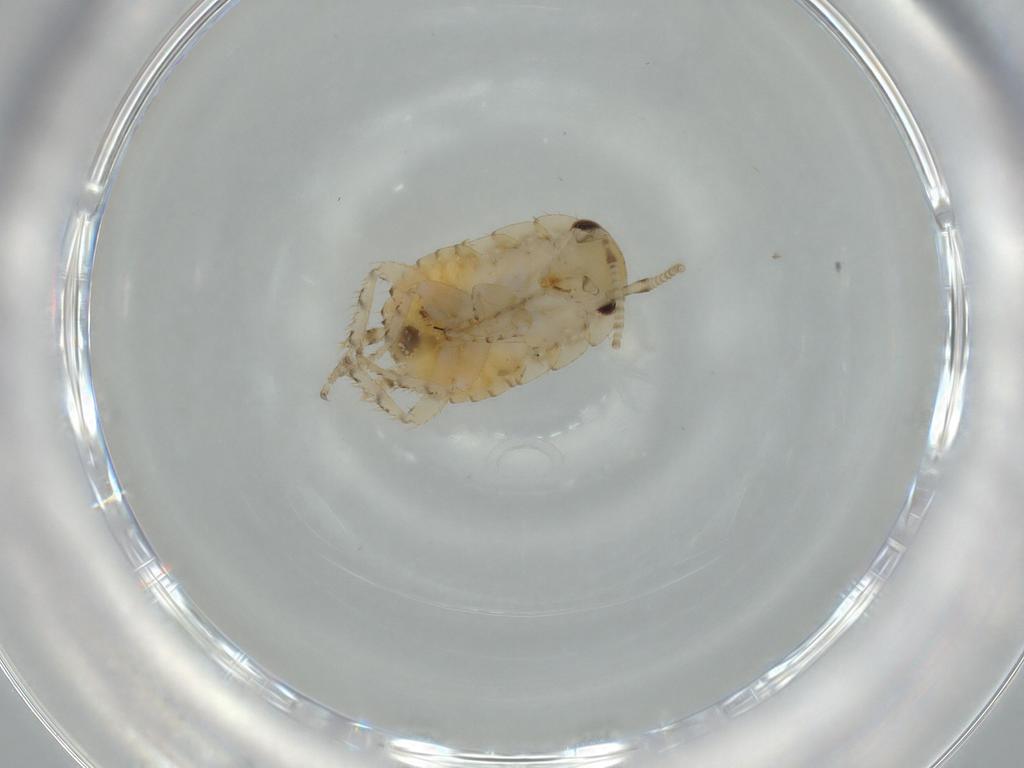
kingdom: Animalia
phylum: Arthropoda
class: Insecta
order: Blattodea
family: Ectobiidae
